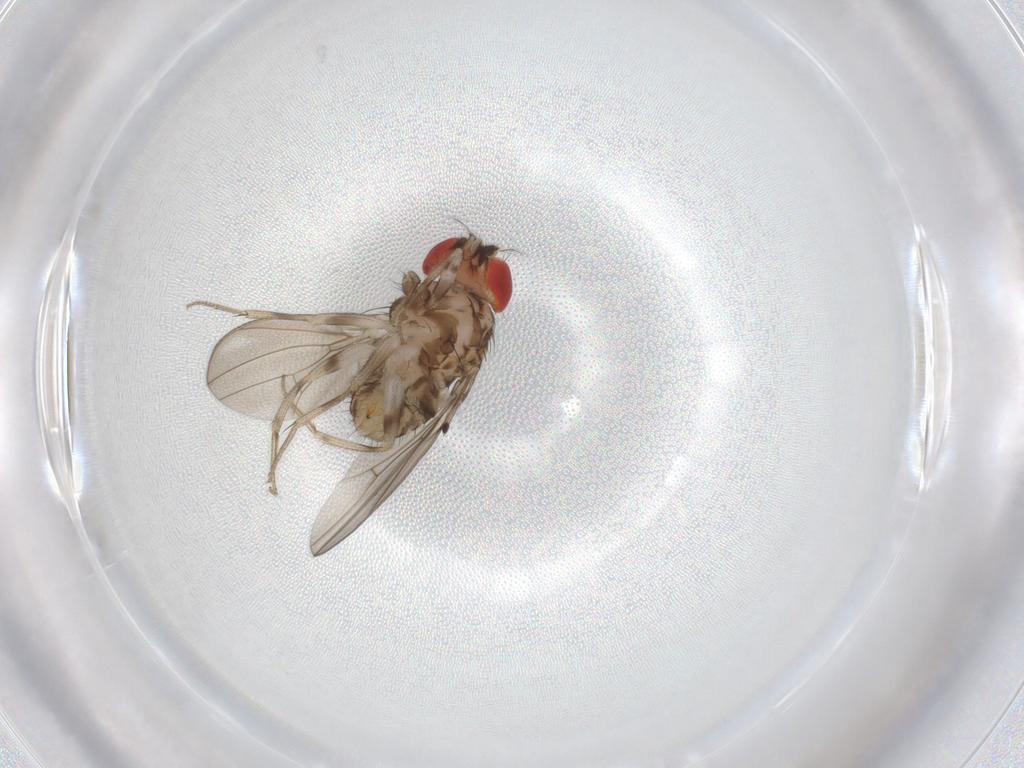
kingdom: Animalia
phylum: Arthropoda
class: Insecta
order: Diptera
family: Drosophilidae
